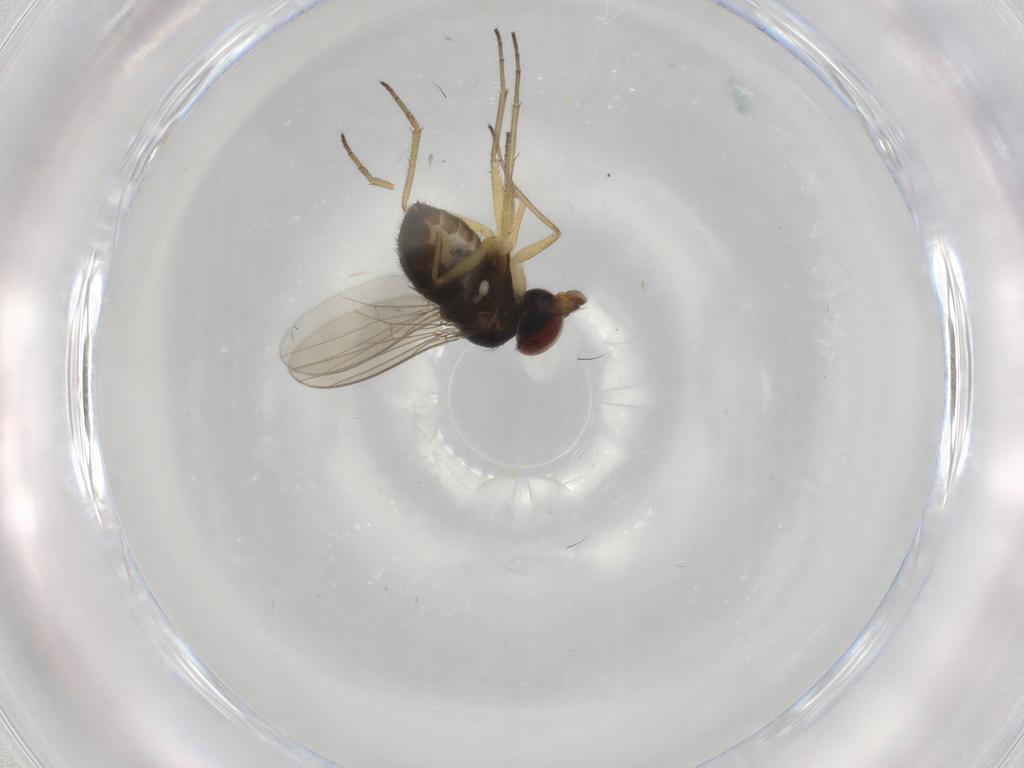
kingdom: Animalia
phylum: Arthropoda
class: Insecta
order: Diptera
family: Dolichopodidae
